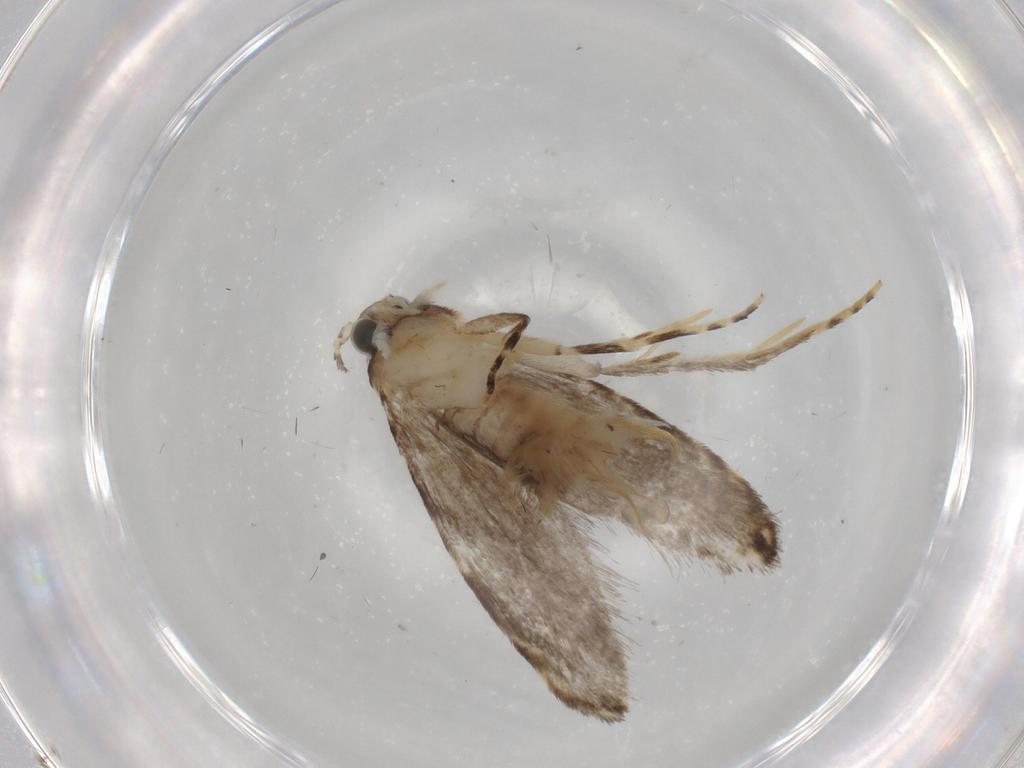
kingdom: Animalia
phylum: Arthropoda
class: Insecta
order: Lepidoptera
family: Tineidae
